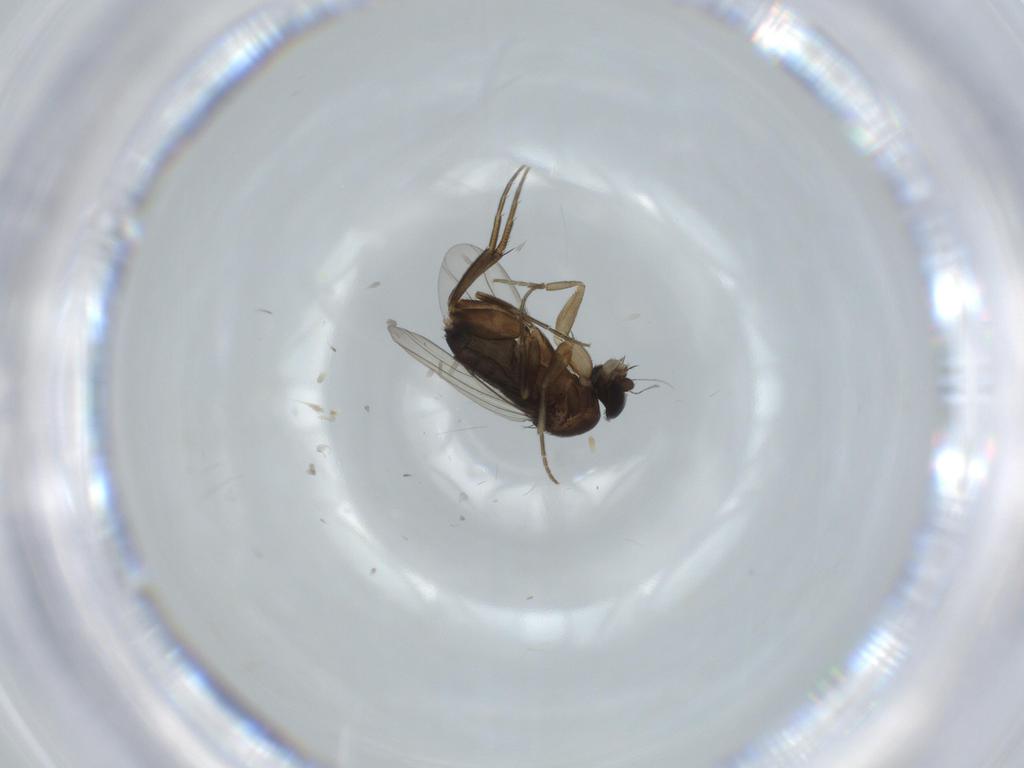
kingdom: Animalia
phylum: Arthropoda
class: Insecta
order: Diptera
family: Phoridae
